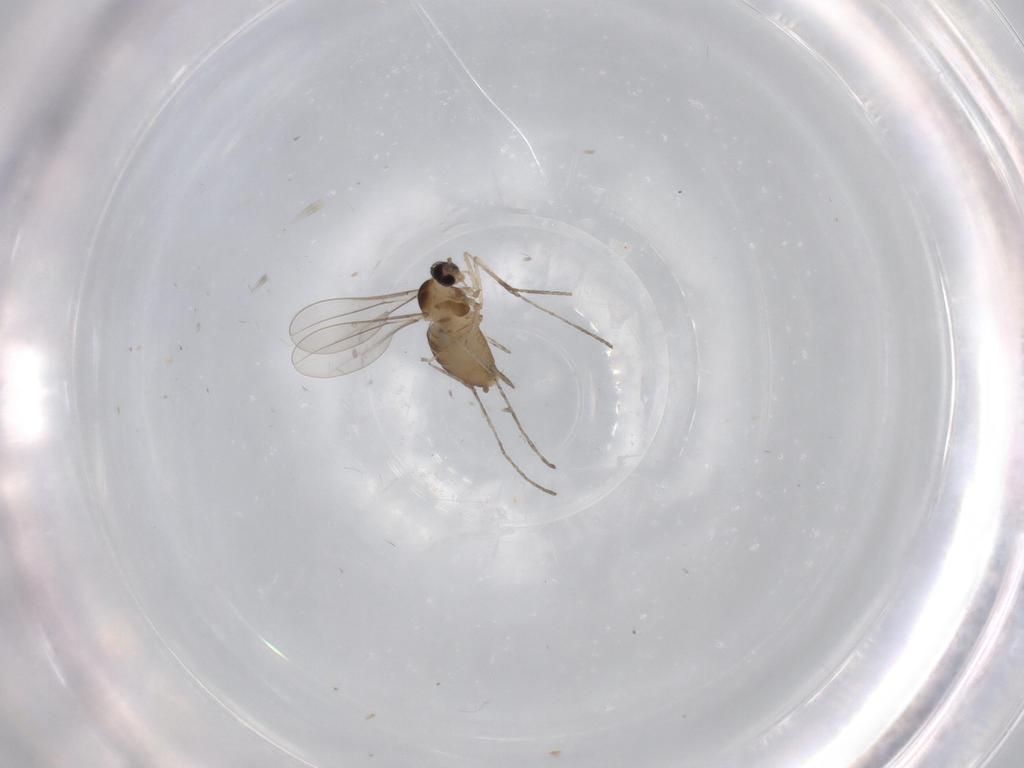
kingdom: Animalia
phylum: Arthropoda
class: Insecta
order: Diptera
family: Cecidomyiidae
